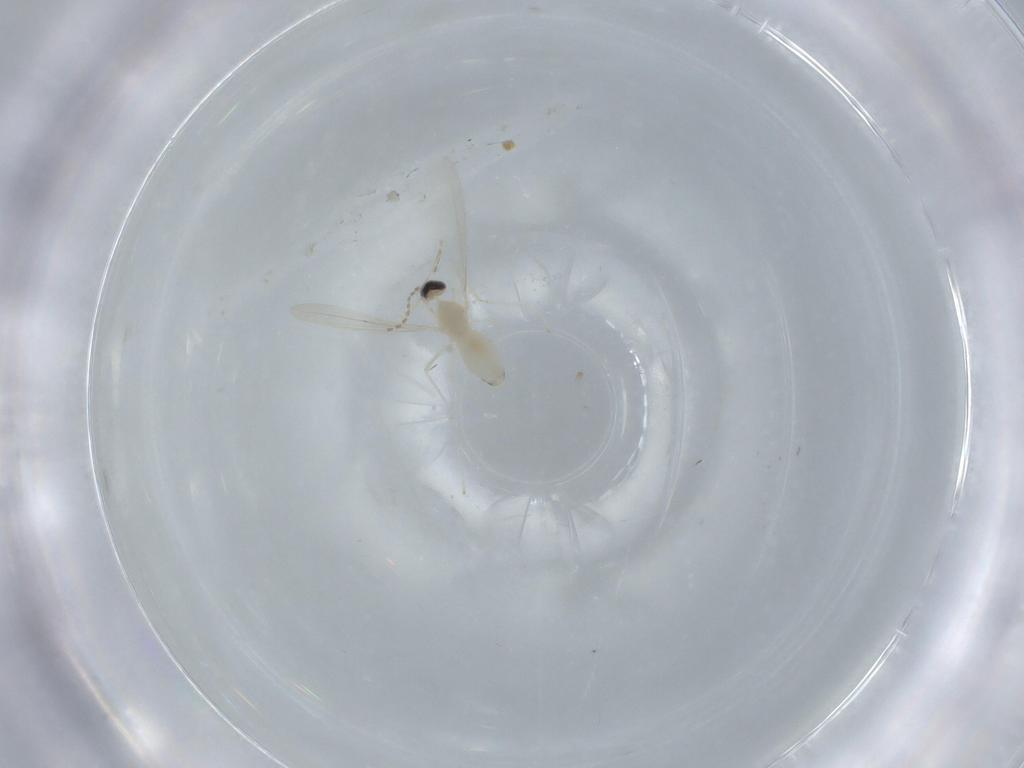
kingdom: Animalia
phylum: Arthropoda
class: Insecta
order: Diptera
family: Cecidomyiidae
